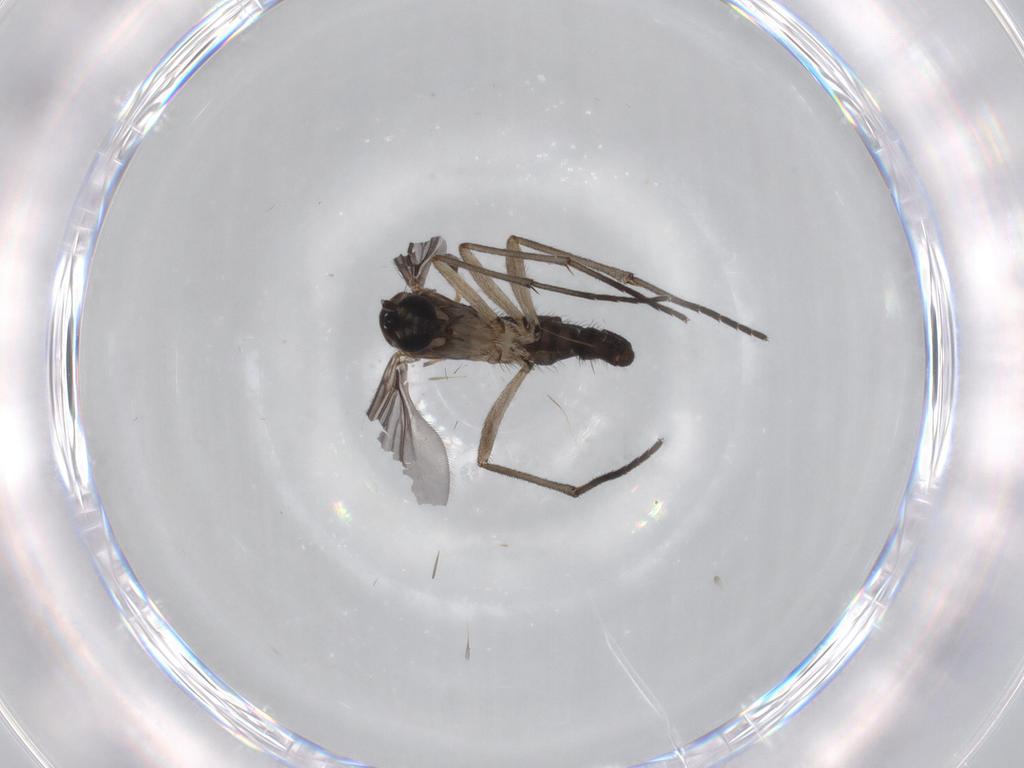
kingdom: Animalia
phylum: Arthropoda
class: Insecta
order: Diptera
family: Sciaridae
